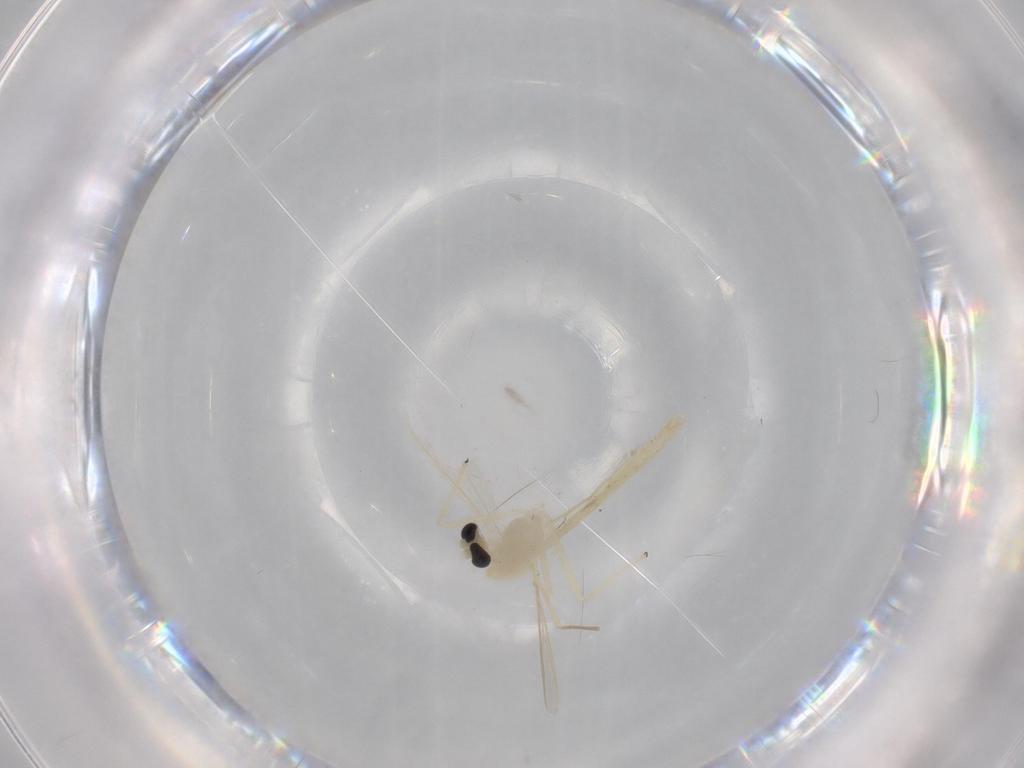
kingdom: Animalia
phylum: Arthropoda
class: Insecta
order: Diptera
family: Chironomidae
